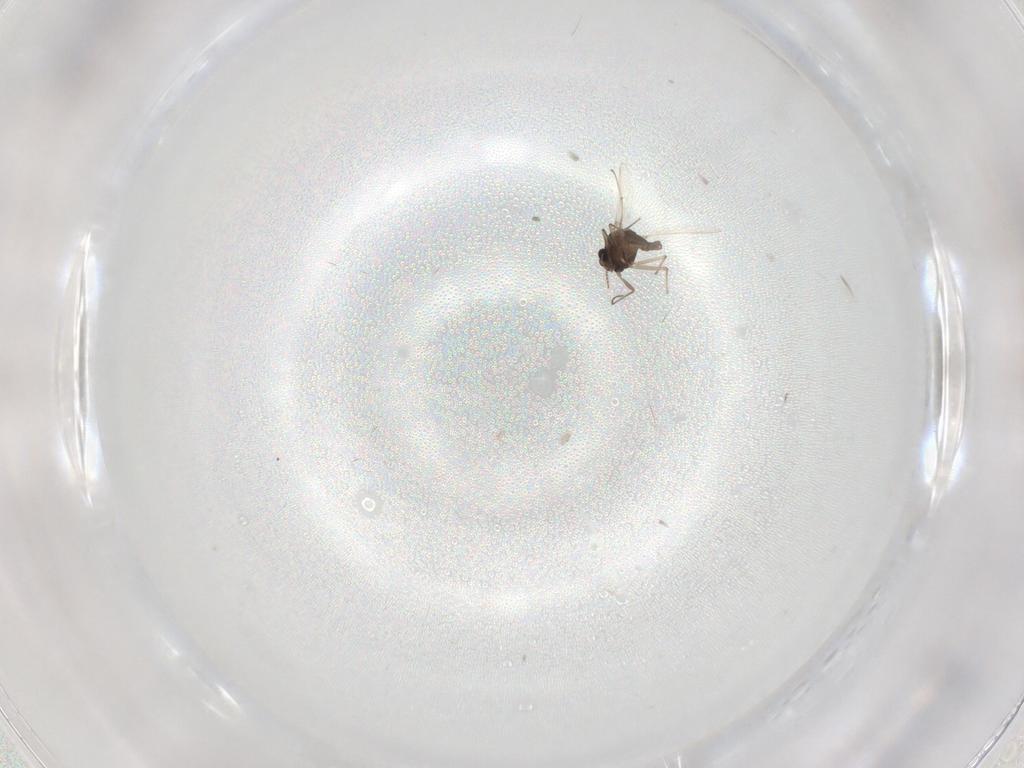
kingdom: Animalia
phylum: Arthropoda
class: Insecta
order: Diptera
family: Chironomidae
